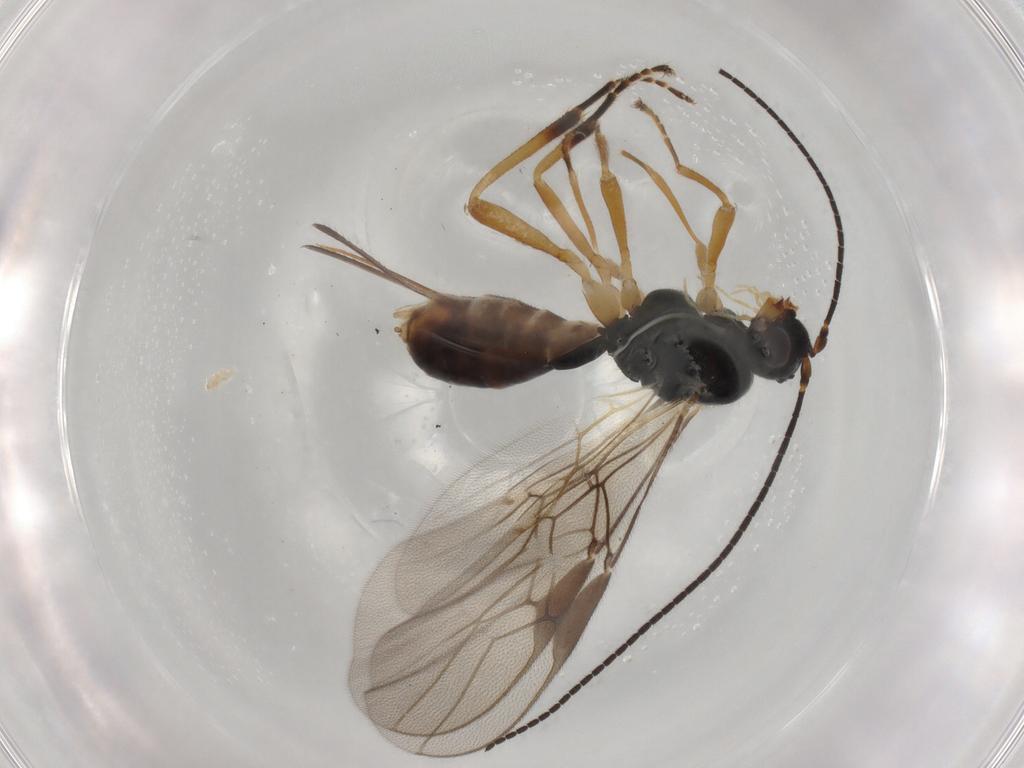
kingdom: Animalia
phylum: Arthropoda
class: Insecta
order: Hymenoptera
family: Braconidae
